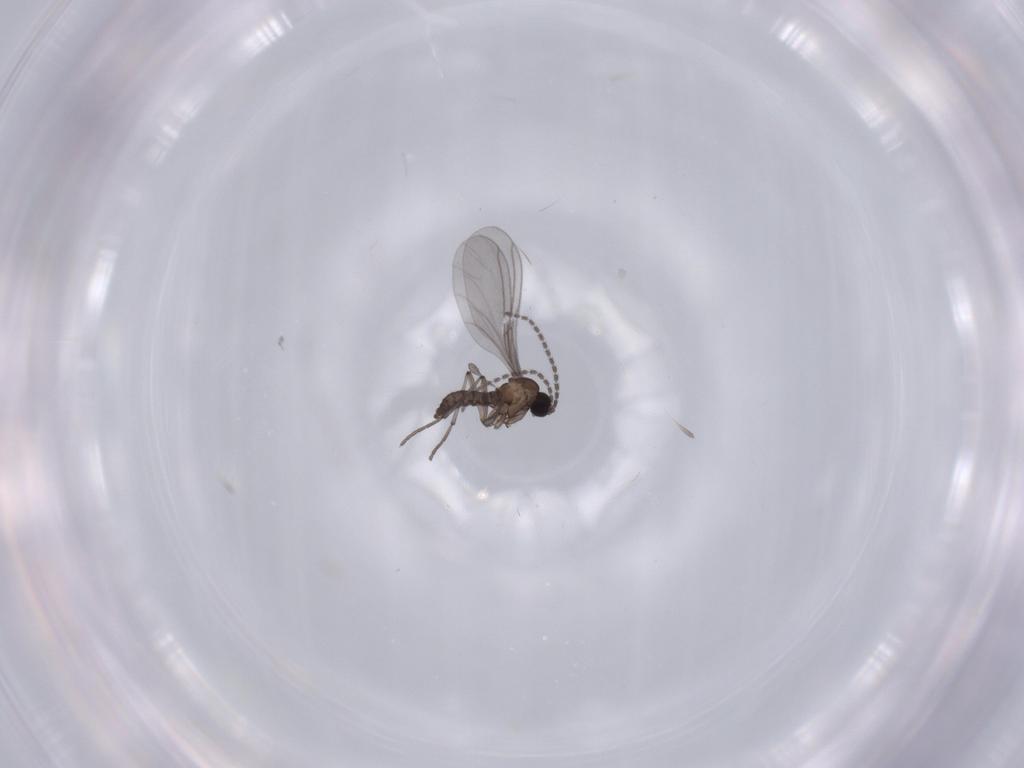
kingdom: Animalia
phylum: Arthropoda
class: Insecta
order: Diptera
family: Sciaridae
